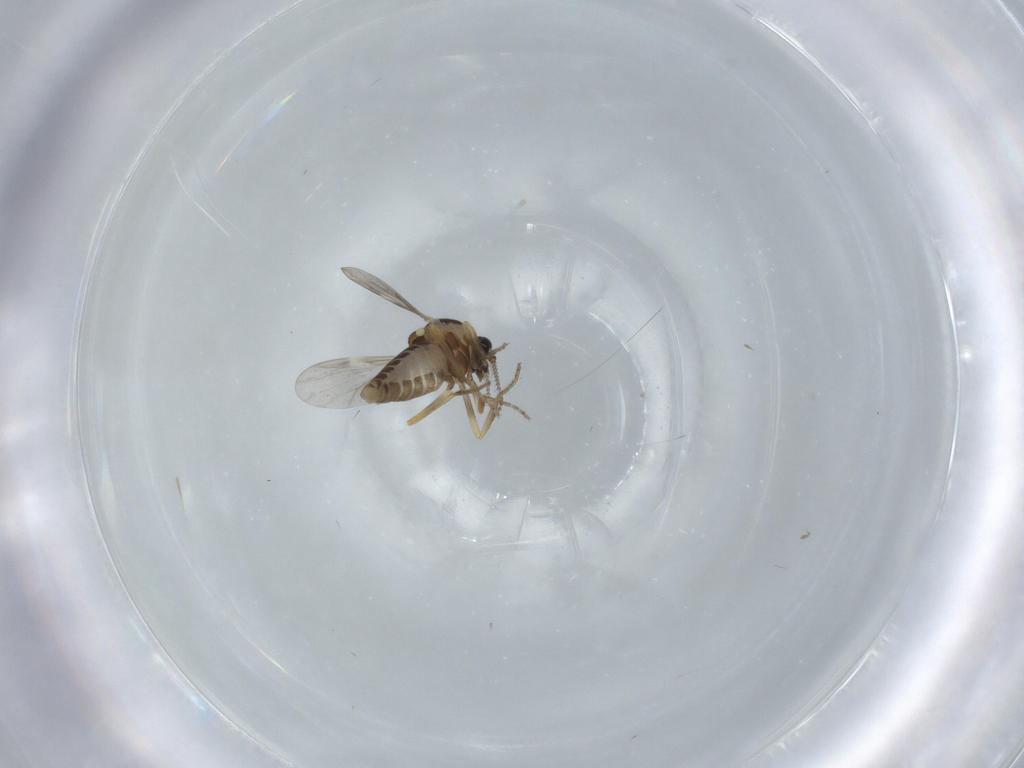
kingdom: Animalia
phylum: Arthropoda
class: Insecta
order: Diptera
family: Ceratopogonidae
